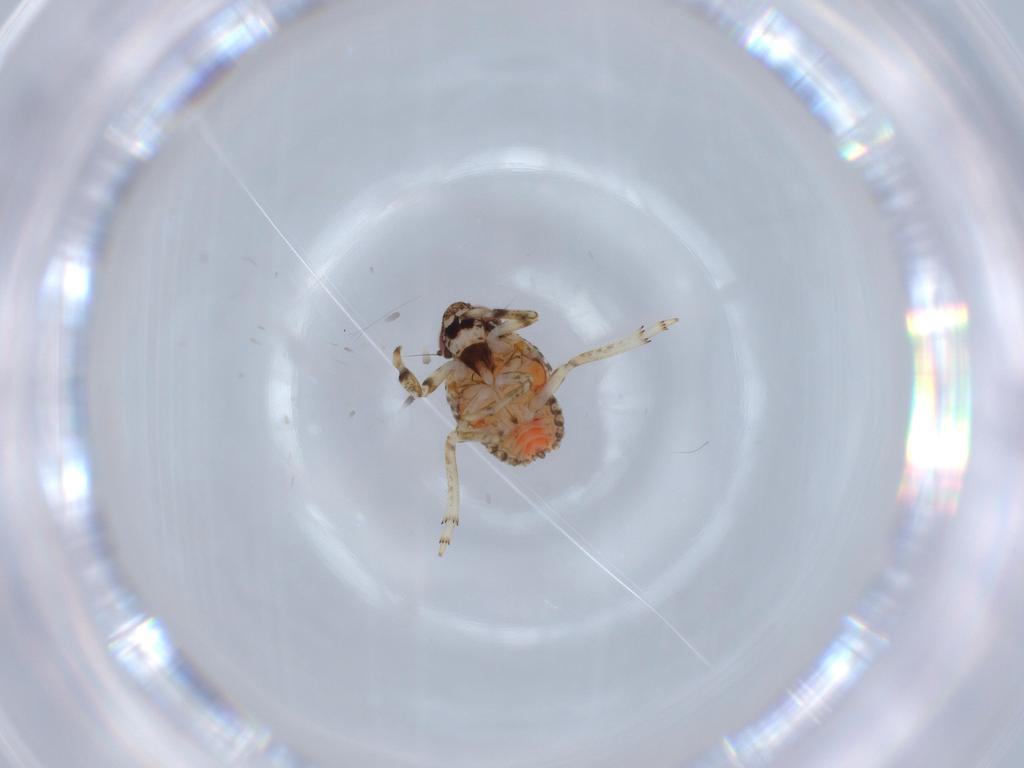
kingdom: Animalia
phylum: Arthropoda
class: Insecta
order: Hemiptera
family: Issidae
